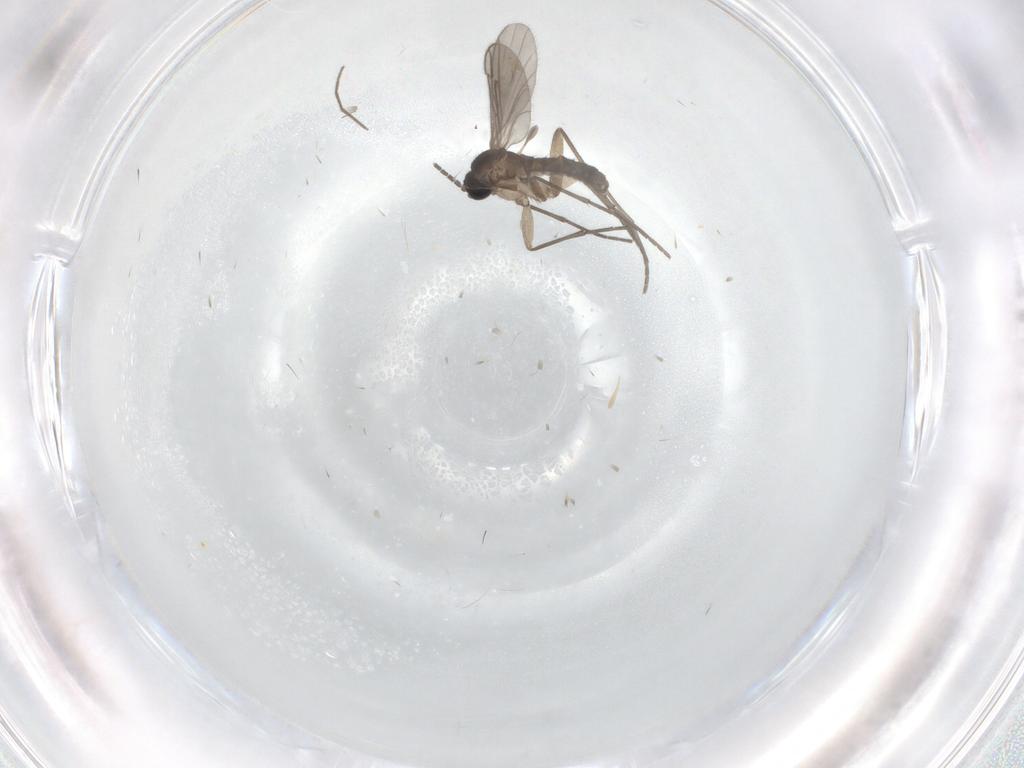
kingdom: Animalia
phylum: Arthropoda
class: Insecta
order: Diptera
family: Sciaridae
